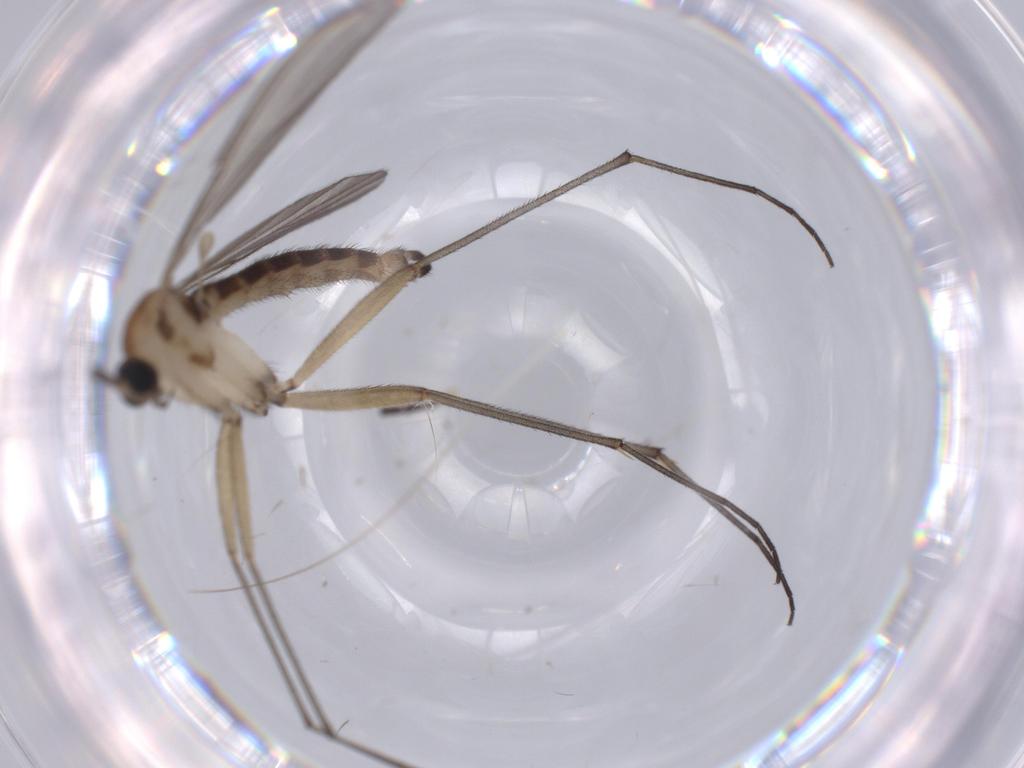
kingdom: Animalia
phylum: Arthropoda
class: Insecta
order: Diptera
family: Sciaridae
